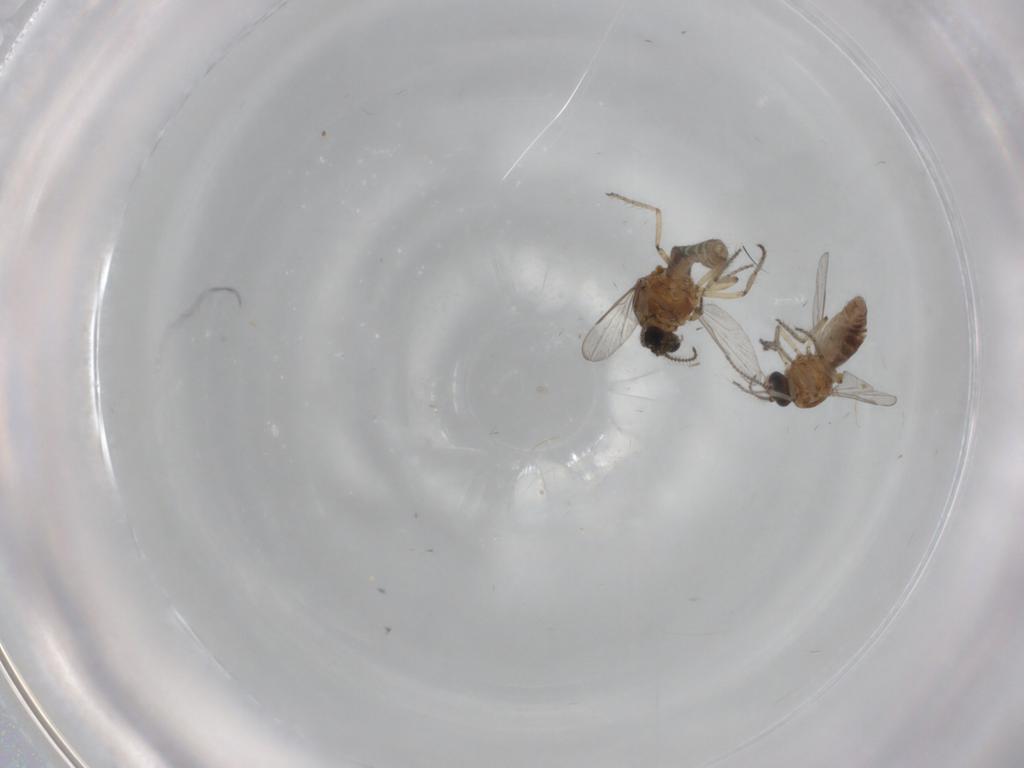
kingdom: Animalia
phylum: Arthropoda
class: Insecta
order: Diptera
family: Ceratopogonidae
